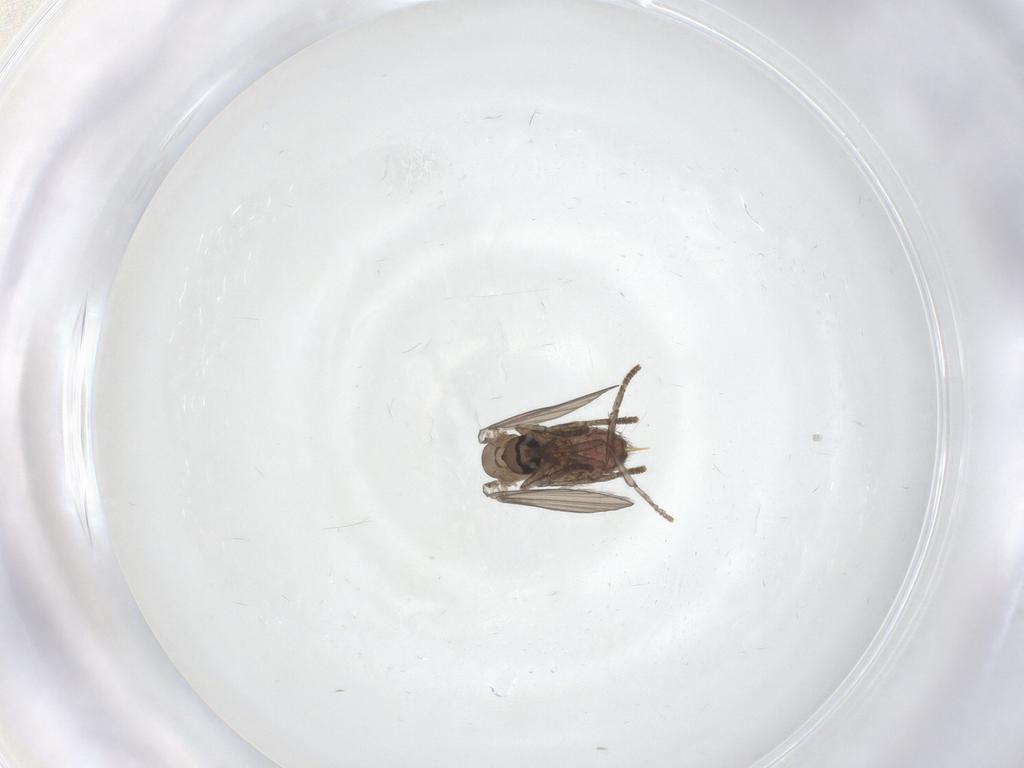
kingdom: Animalia
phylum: Arthropoda
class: Insecta
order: Diptera
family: Psychodidae
